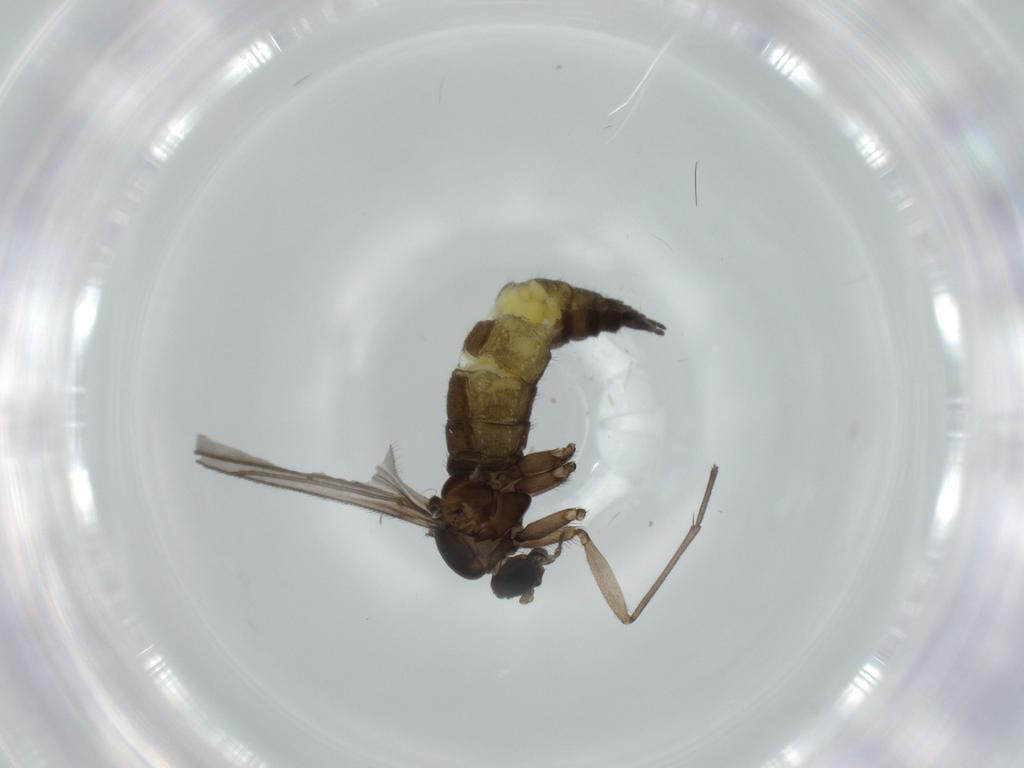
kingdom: Animalia
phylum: Arthropoda
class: Insecta
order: Diptera
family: Sciaridae
